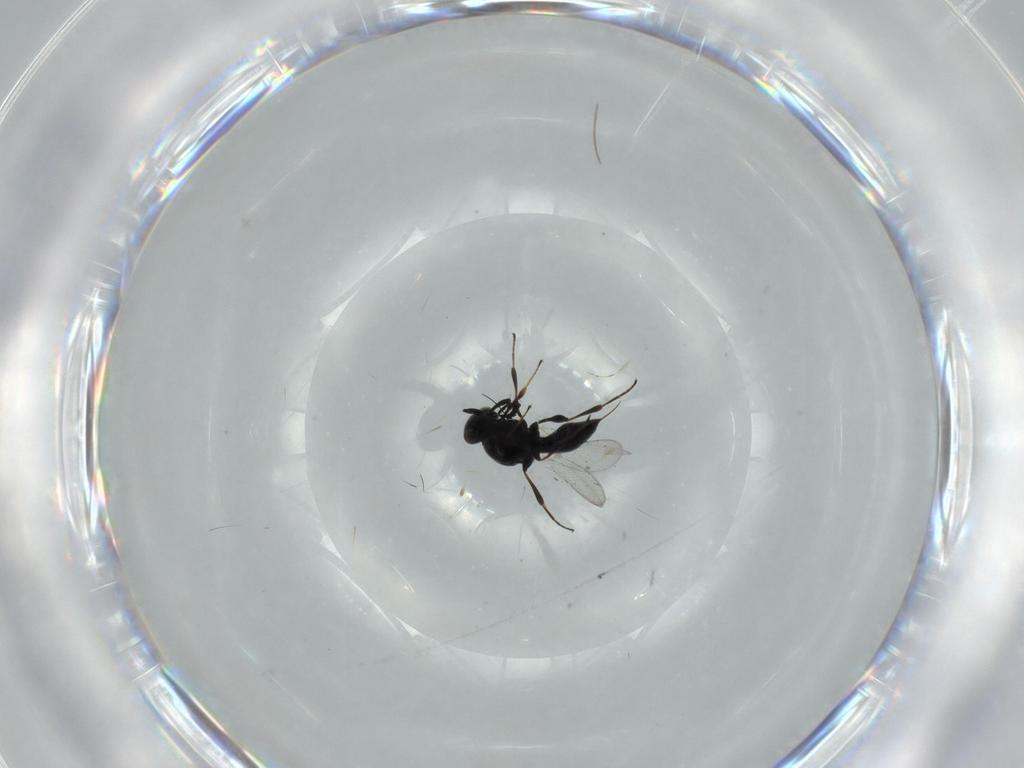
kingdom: Animalia
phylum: Arthropoda
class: Insecta
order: Hymenoptera
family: Platygastridae
